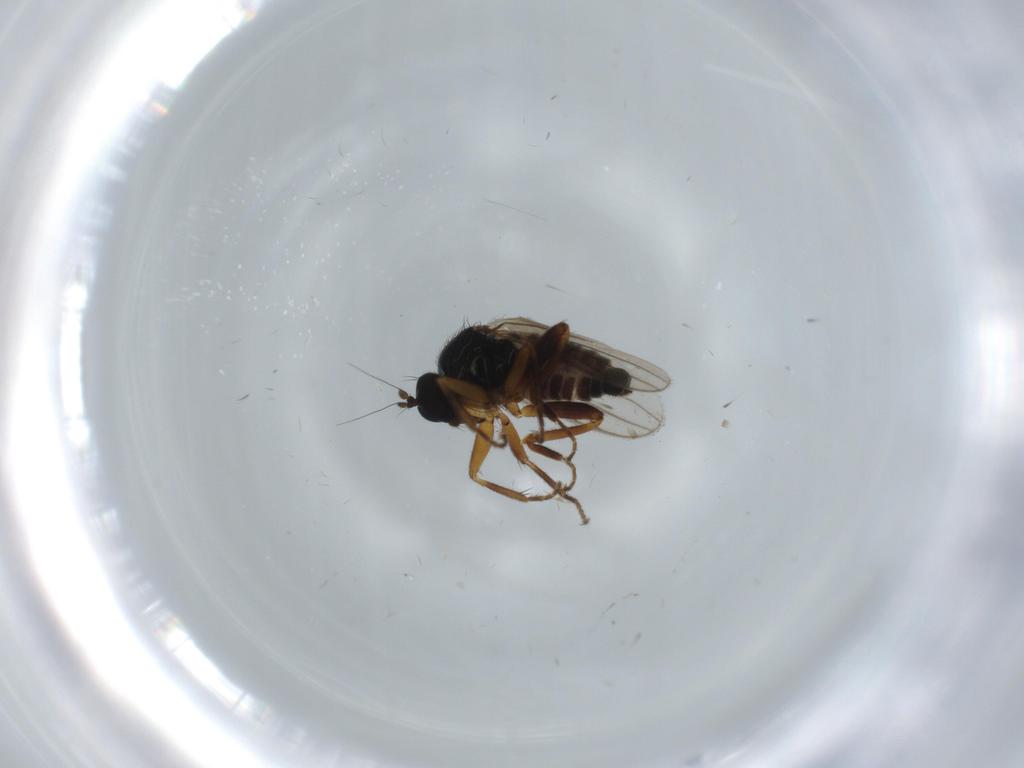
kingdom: Animalia
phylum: Arthropoda
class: Insecta
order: Diptera
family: Hybotidae
